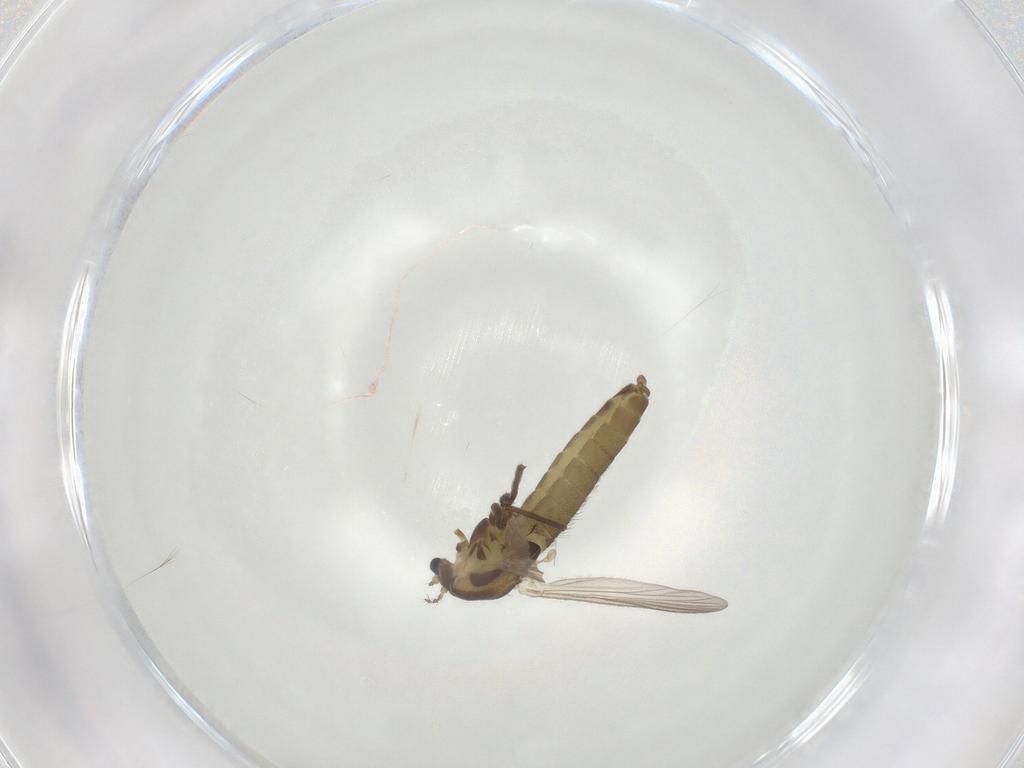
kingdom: Animalia
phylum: Arthropoda
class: Insecta
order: Diptera
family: Chironomidae
